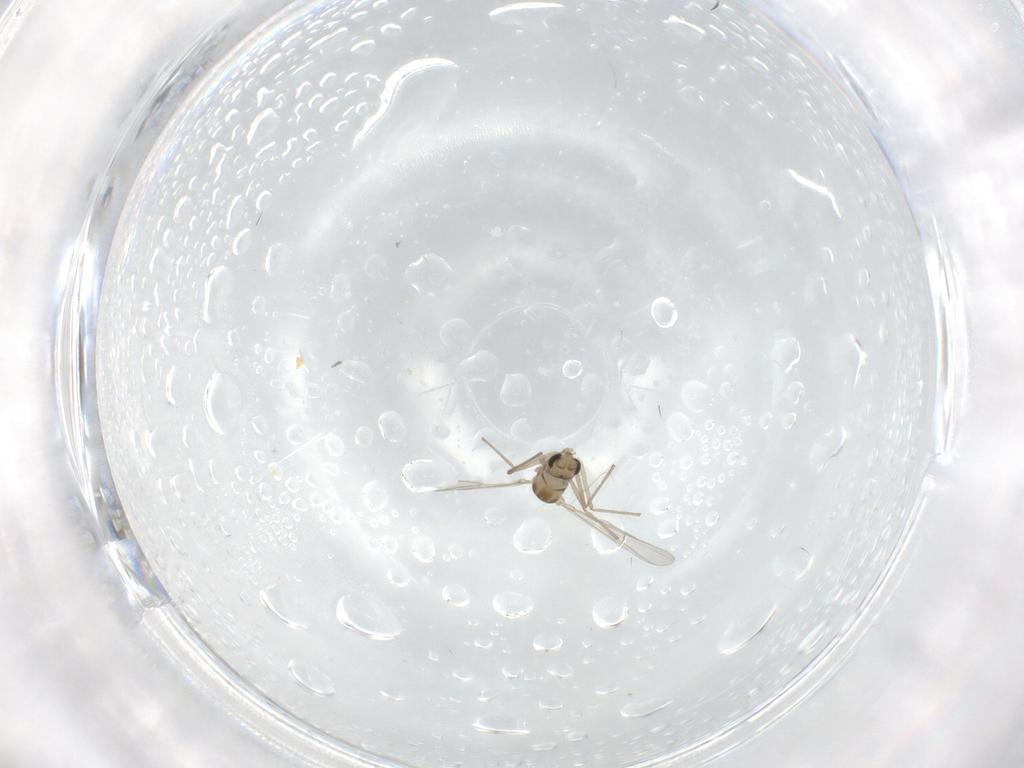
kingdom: Animalia
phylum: Arthropoda
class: Insecta
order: Diptera
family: Chironomidae
